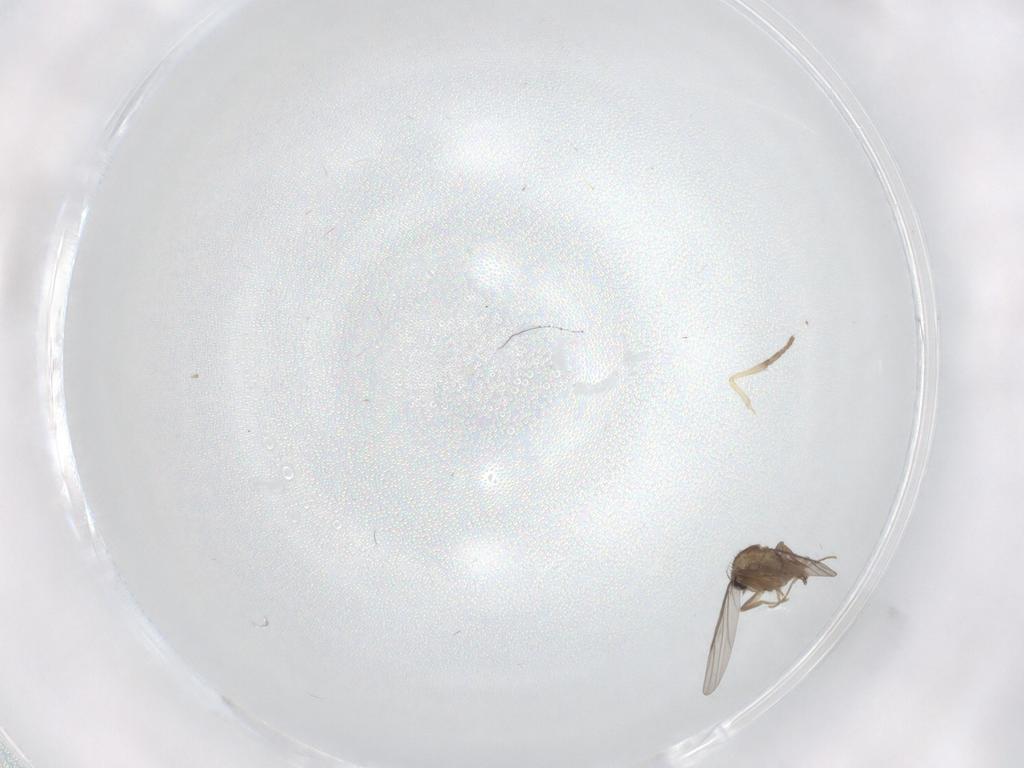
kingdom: Animalia
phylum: Arthropoda
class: Insecta
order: Diptera
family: Psychodidae
